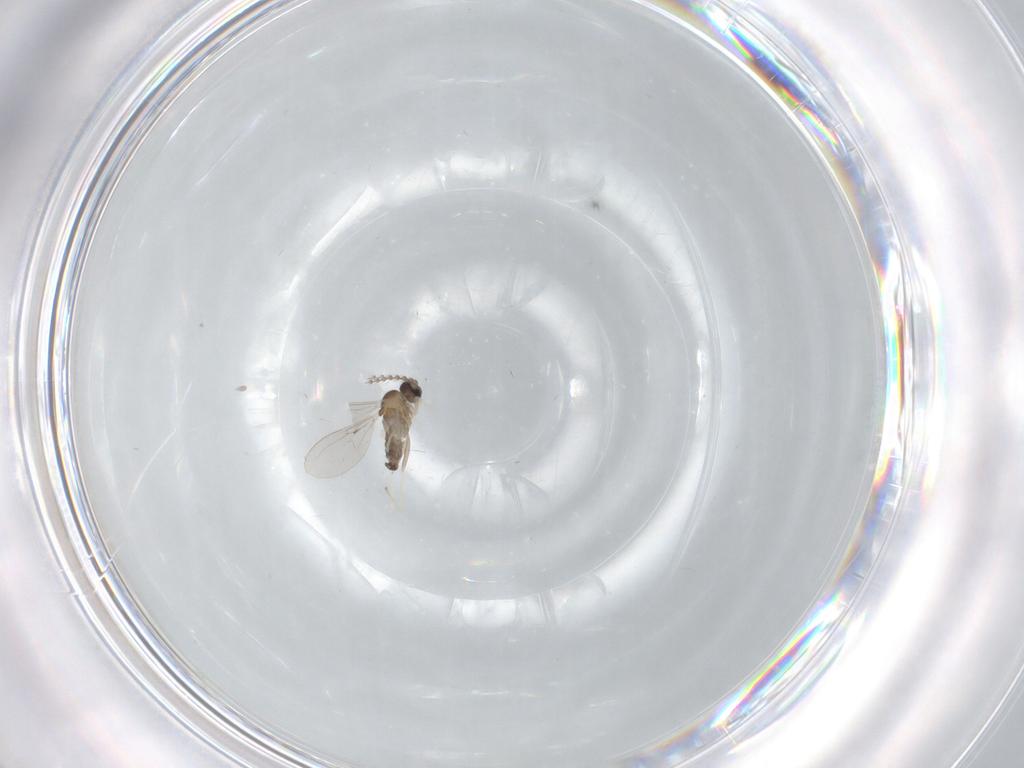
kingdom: Animalia
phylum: Arthropoda
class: Insecta
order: Diptera
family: Cecidomyiidae
